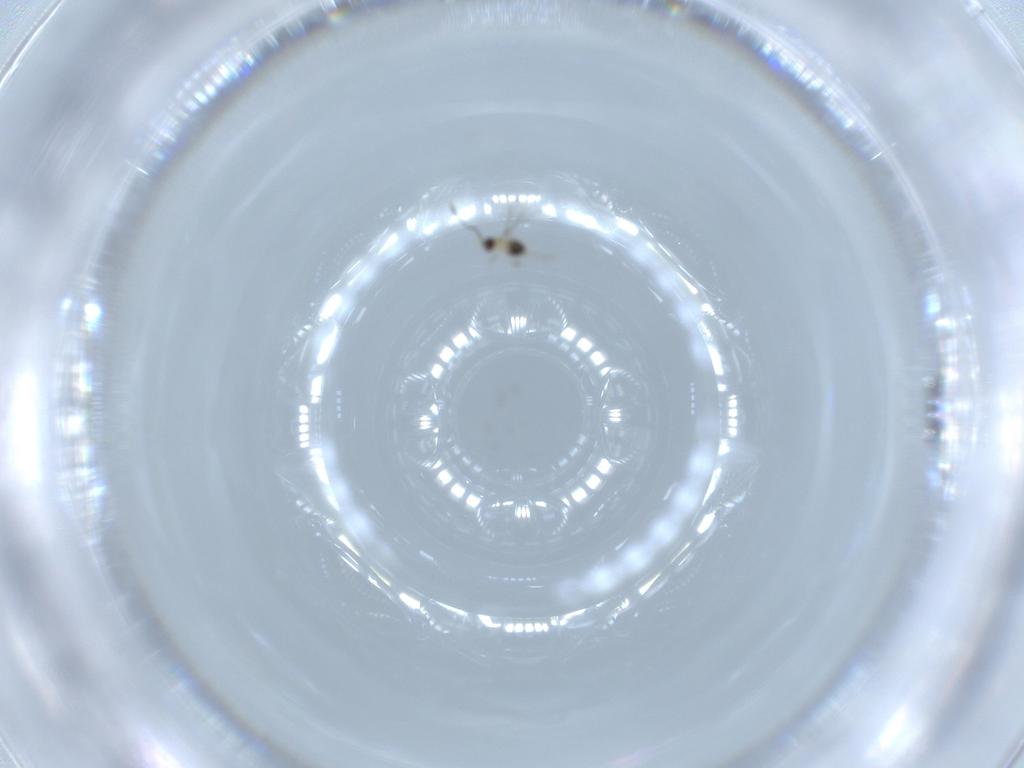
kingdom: Animalia
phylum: Arthropoda
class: Insecta
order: Hymenoptera
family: Mymaridae
